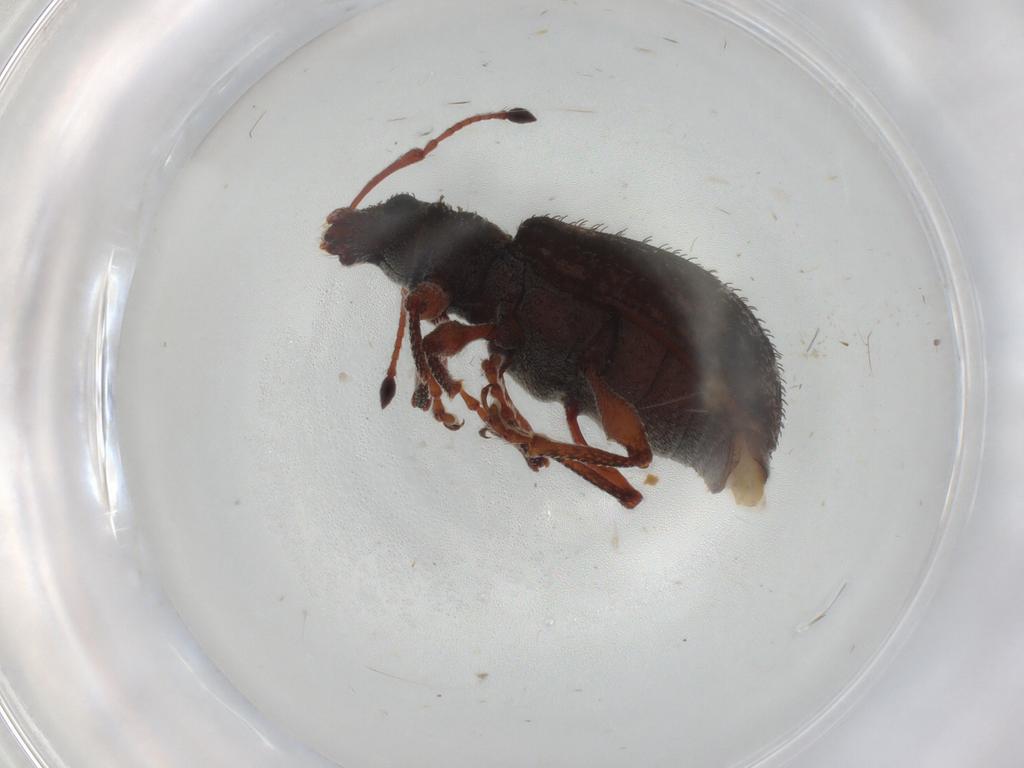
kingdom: Animalia
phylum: Arthropoda
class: Insecta
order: Coleoptera
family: Curculionidae
